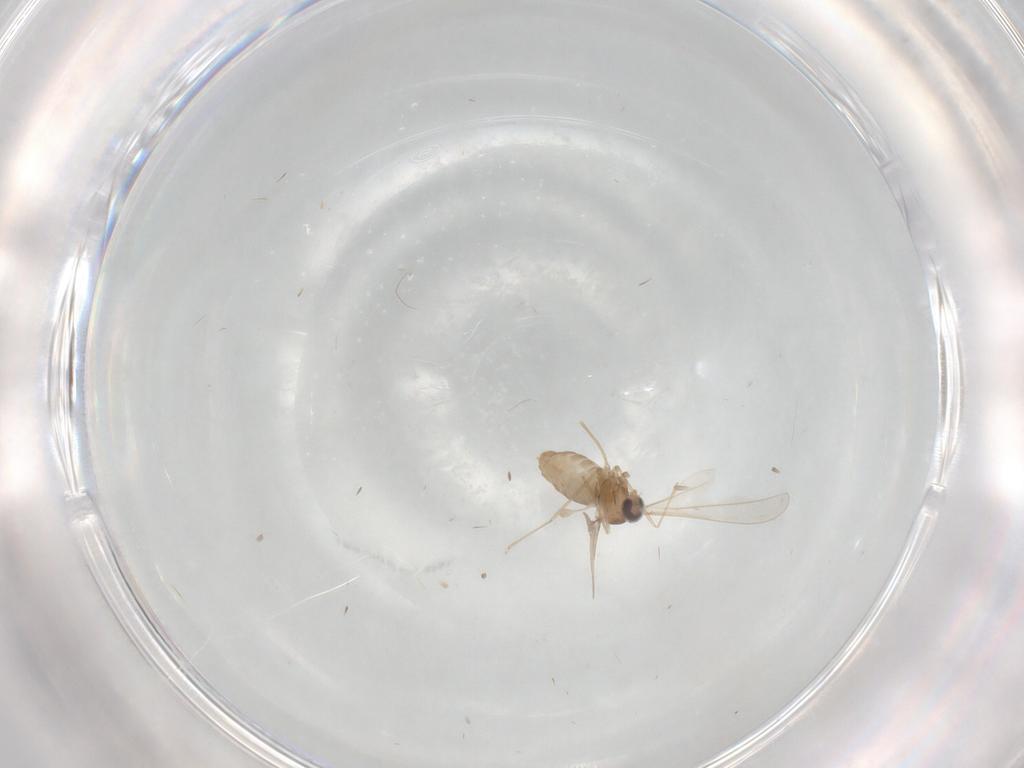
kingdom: Animalia
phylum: Arthropoda
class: Insecta
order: Diptera
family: Cecidomyiidae
